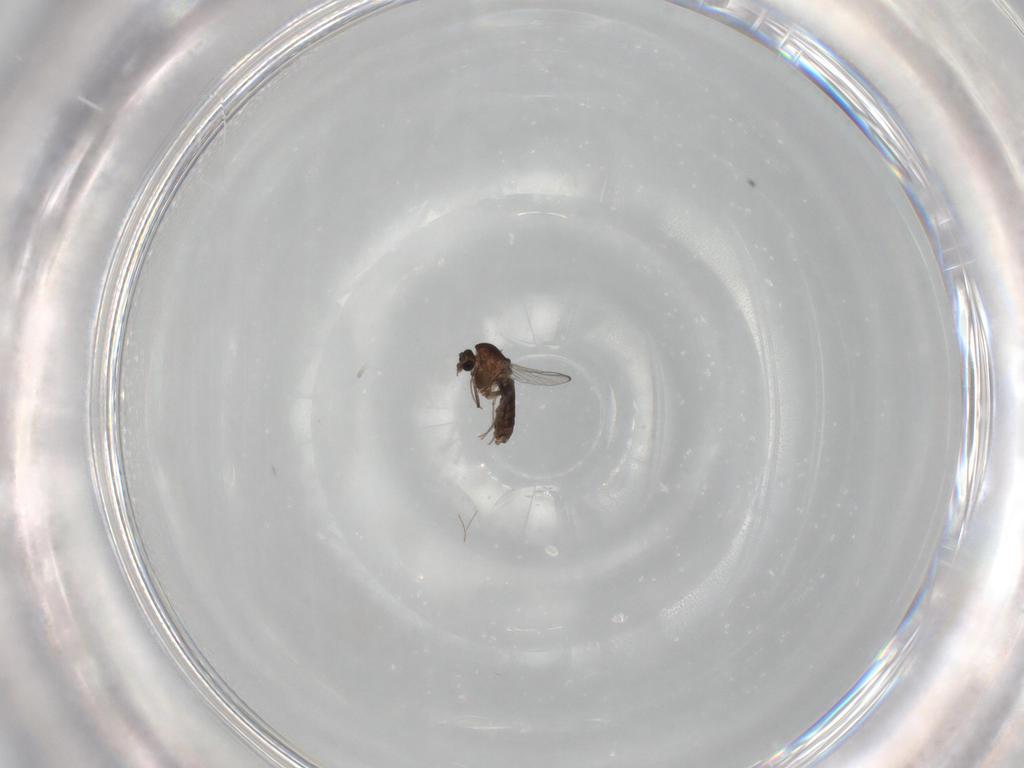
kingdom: Animalia
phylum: Arthropoda
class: Insecta
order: Diptera
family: Chironomidae
